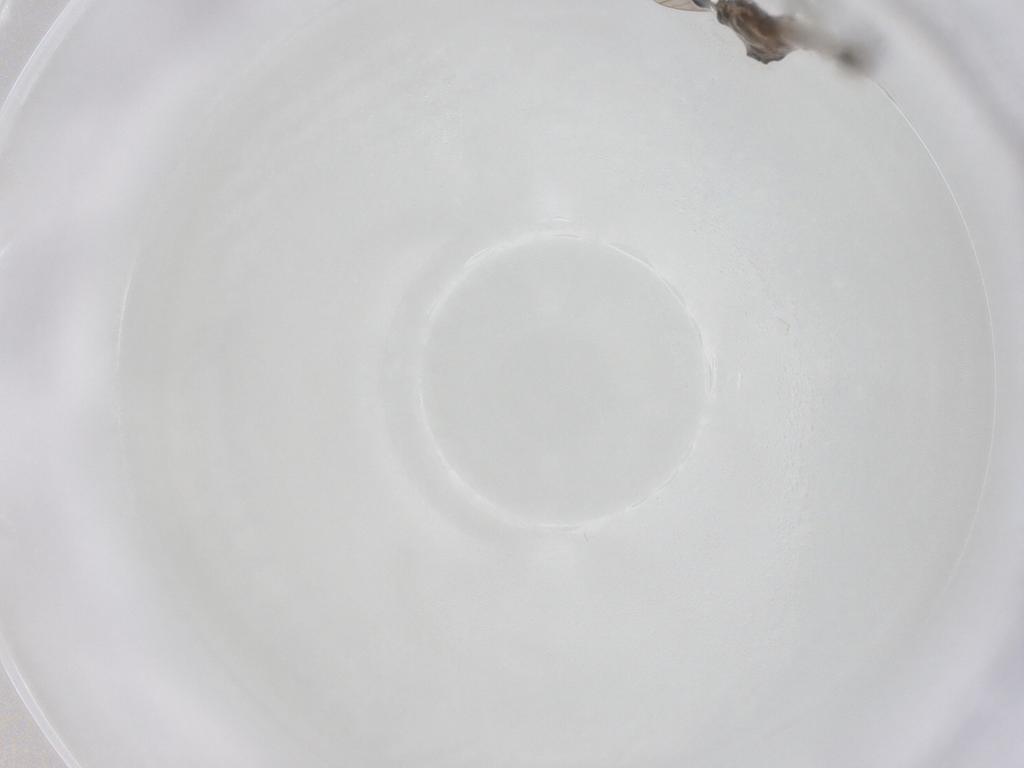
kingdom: Animalia
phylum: Arthropoda
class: Insecta
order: Diptera
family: Limoniidae
